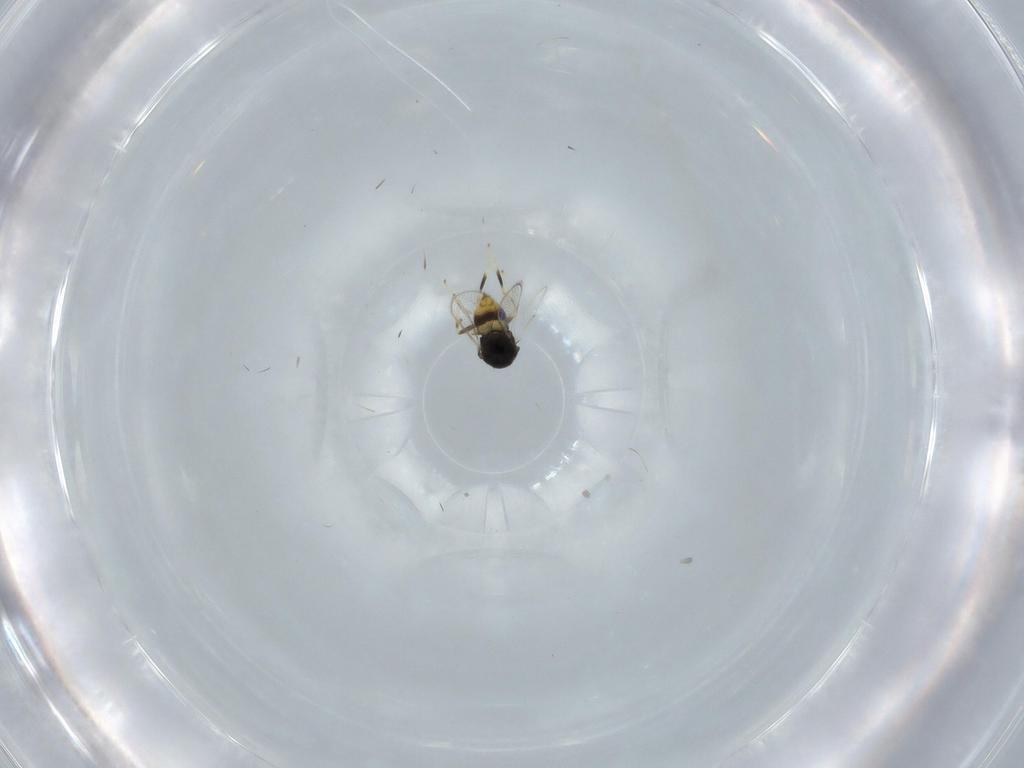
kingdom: Animalia
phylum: Arthropoda
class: Insecta
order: Hymenoptera
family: Eulophidae
